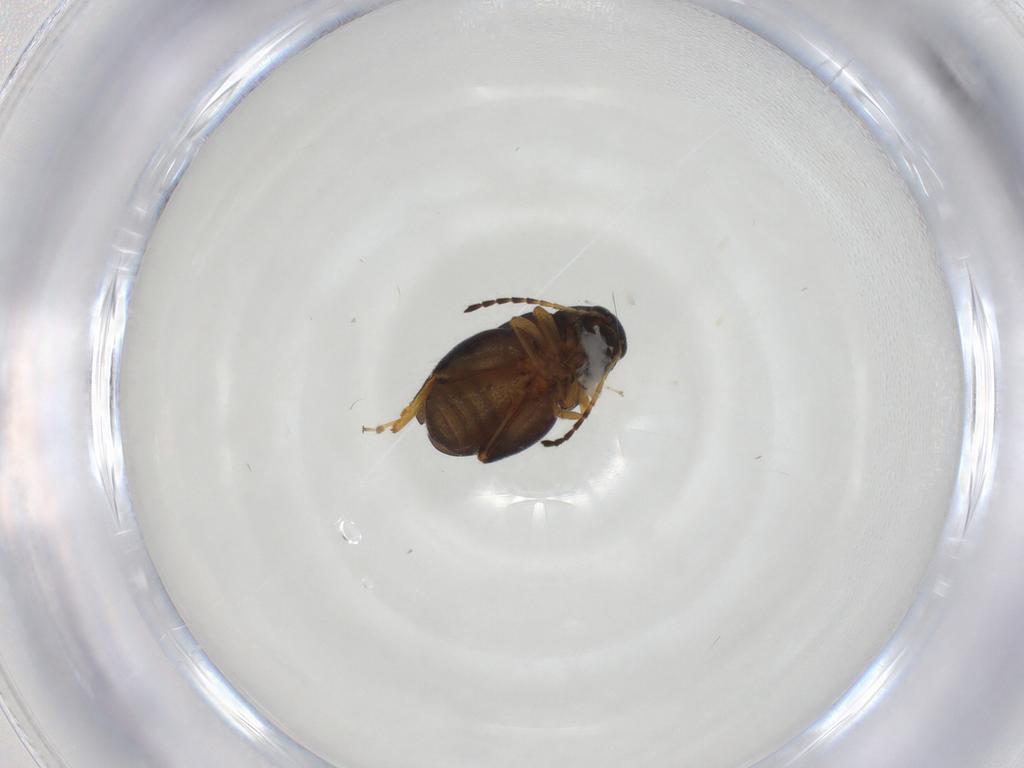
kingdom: Animalia
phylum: Arthropoda
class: Insecta
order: Coleoptera
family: Chrysomelidae
